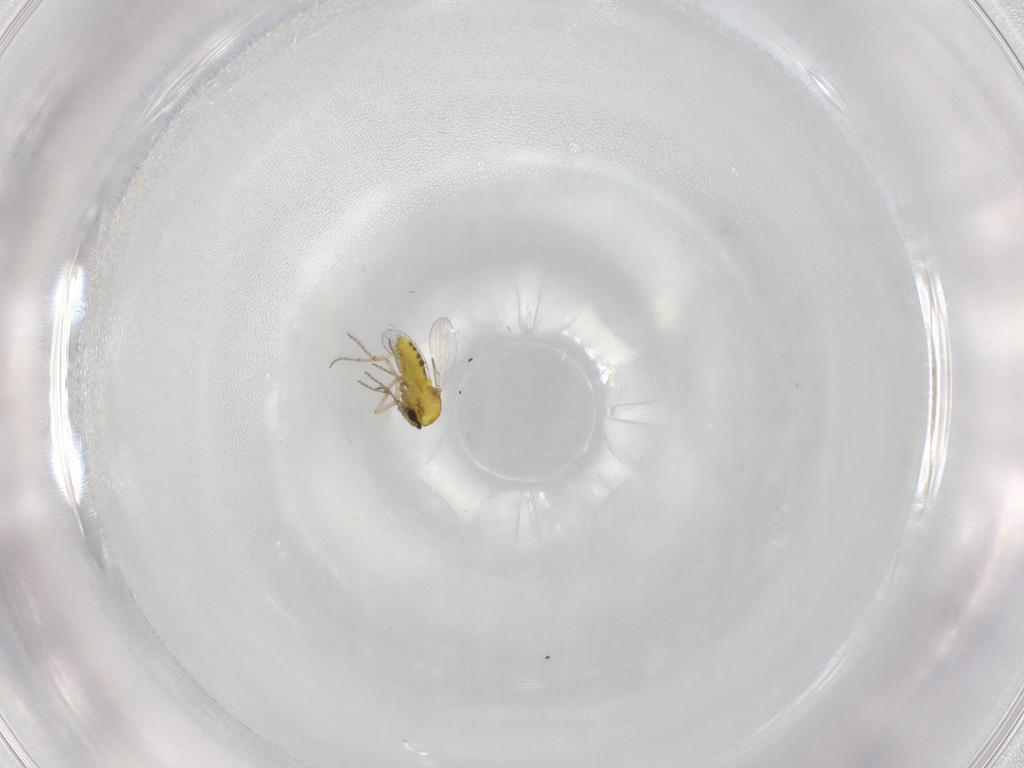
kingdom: Animalia
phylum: Arthropoda
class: Insecta
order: Diptera
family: Ceratopogonidae
